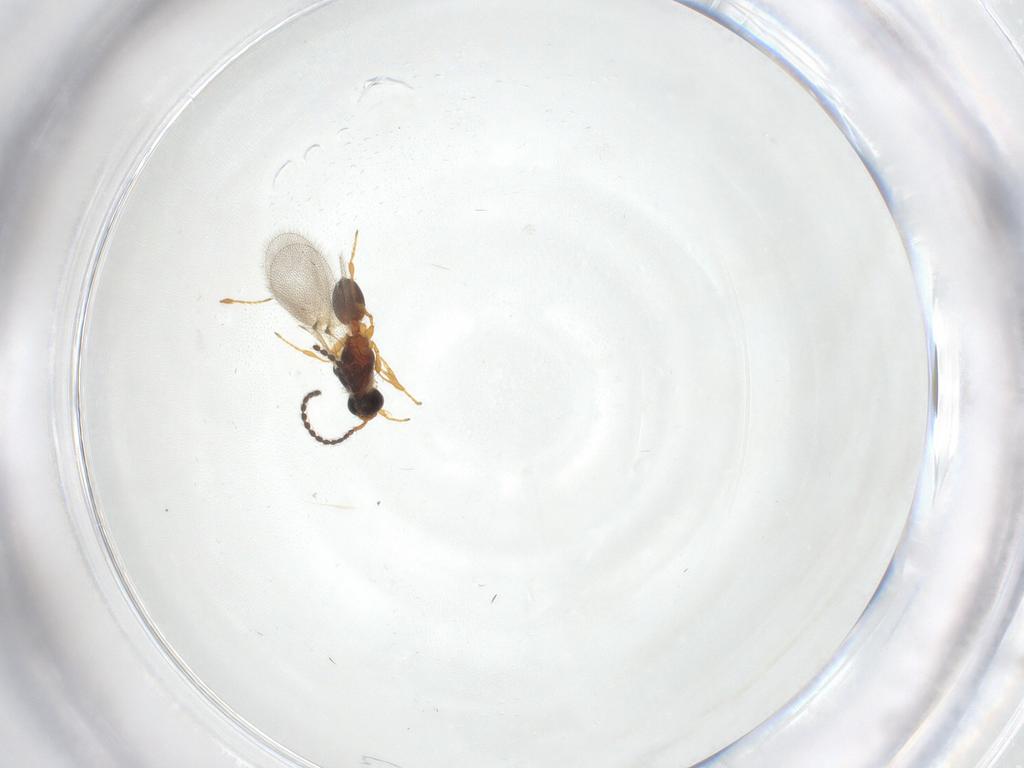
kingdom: Animalia
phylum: Arthropoda
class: Insecta
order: Hymenoptera
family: Diapriidae
